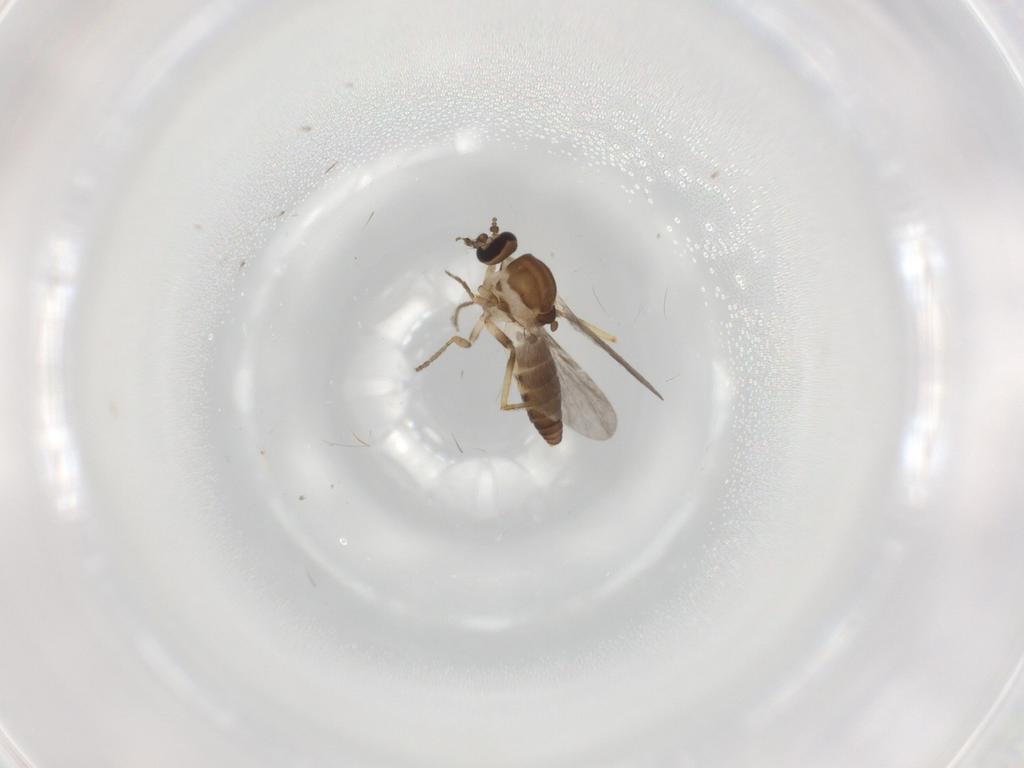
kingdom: Animalia
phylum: Arthropoda
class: Insecta
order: Diptera
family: Ceratopogonidae
